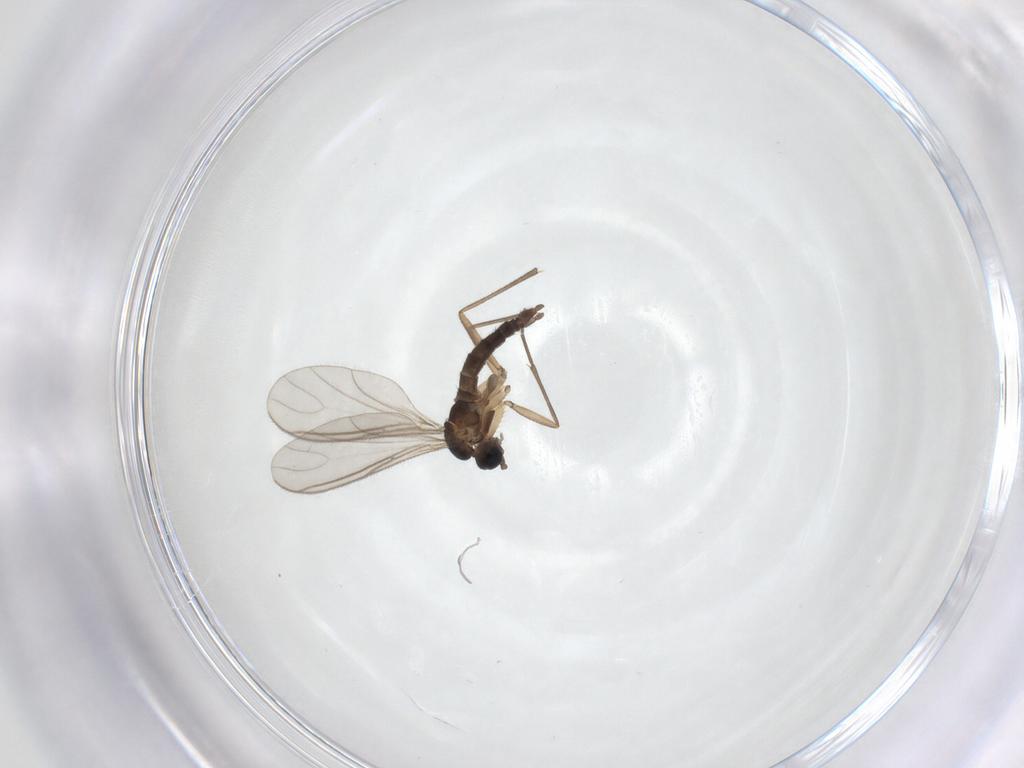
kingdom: Animalia
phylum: Arthropoda
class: Insecta
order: Diptera
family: Sciaridae
